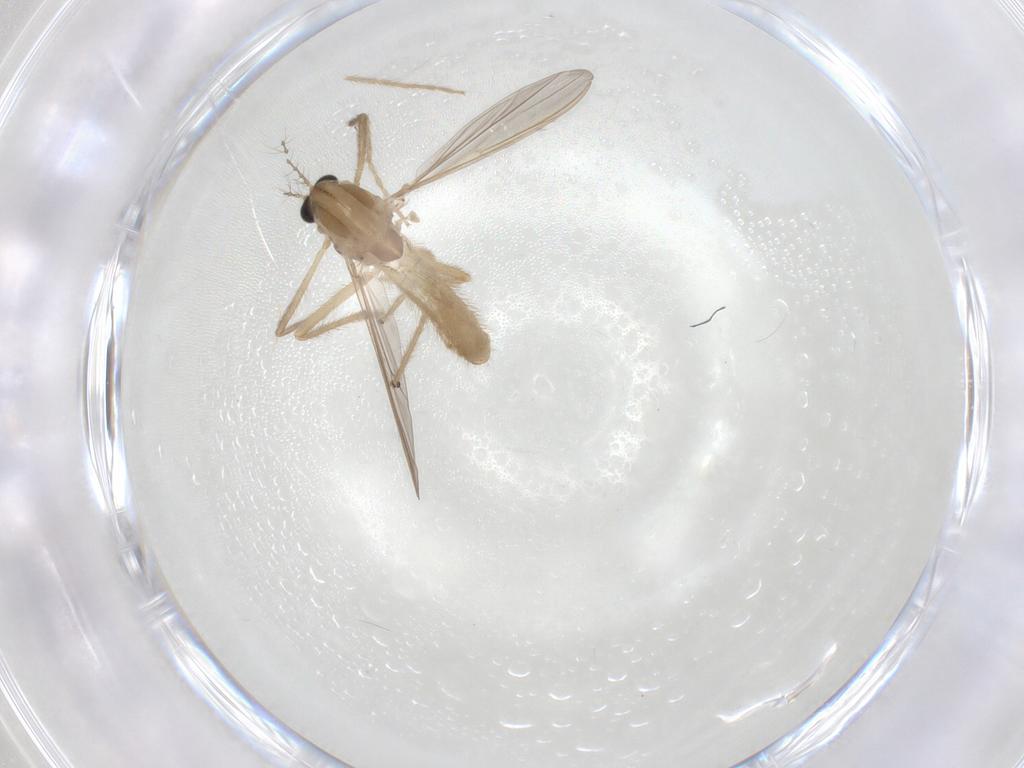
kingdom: Animalia
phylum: Arthropoda
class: Insecta
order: Diptera
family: Chironomidae
